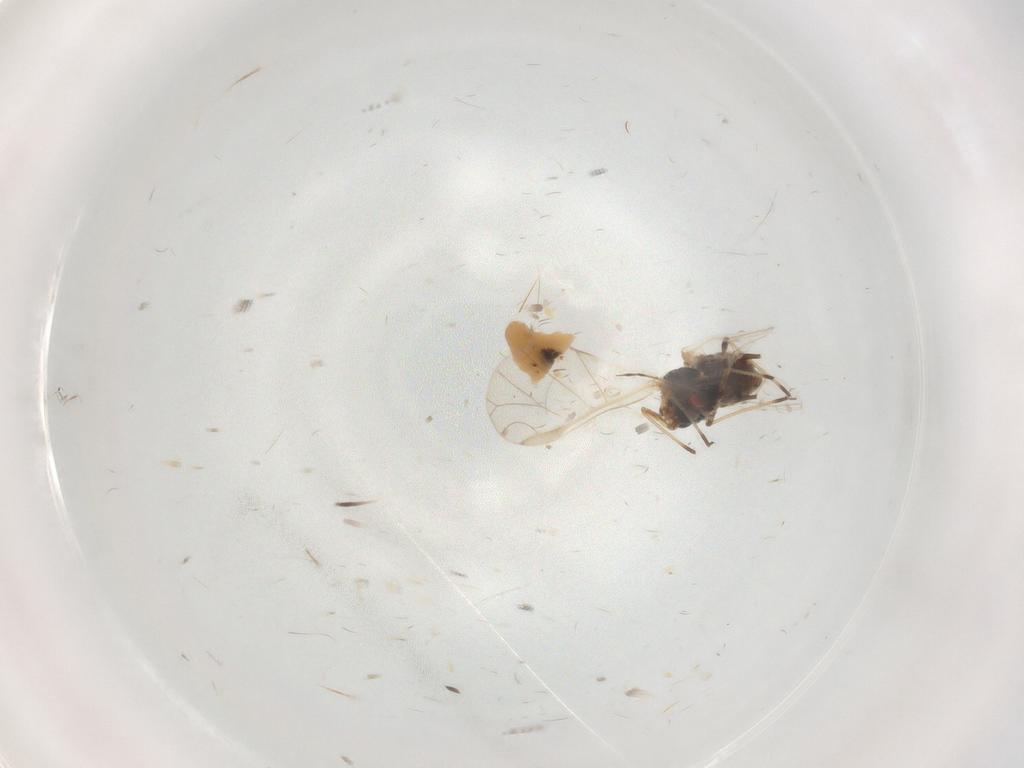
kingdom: Animalia
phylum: Arthropoda
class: Insecta
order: Hemiptera
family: Aphididae
